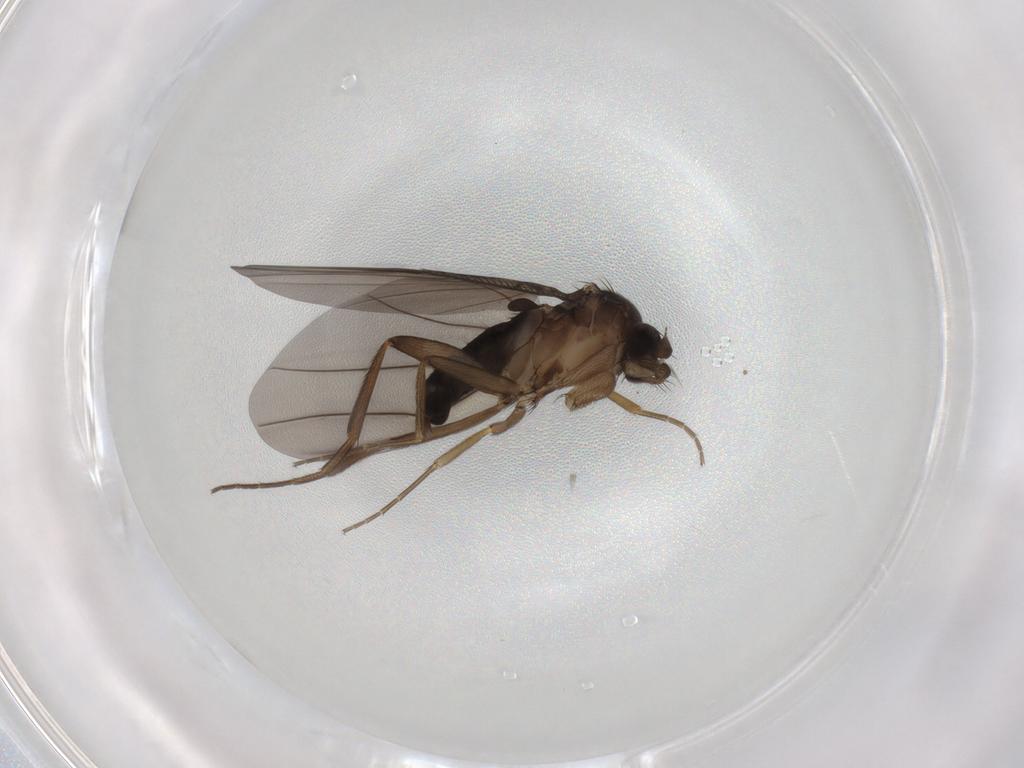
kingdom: Animalia
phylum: Arthropoda
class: Insecta
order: Diptera
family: Phoridae
